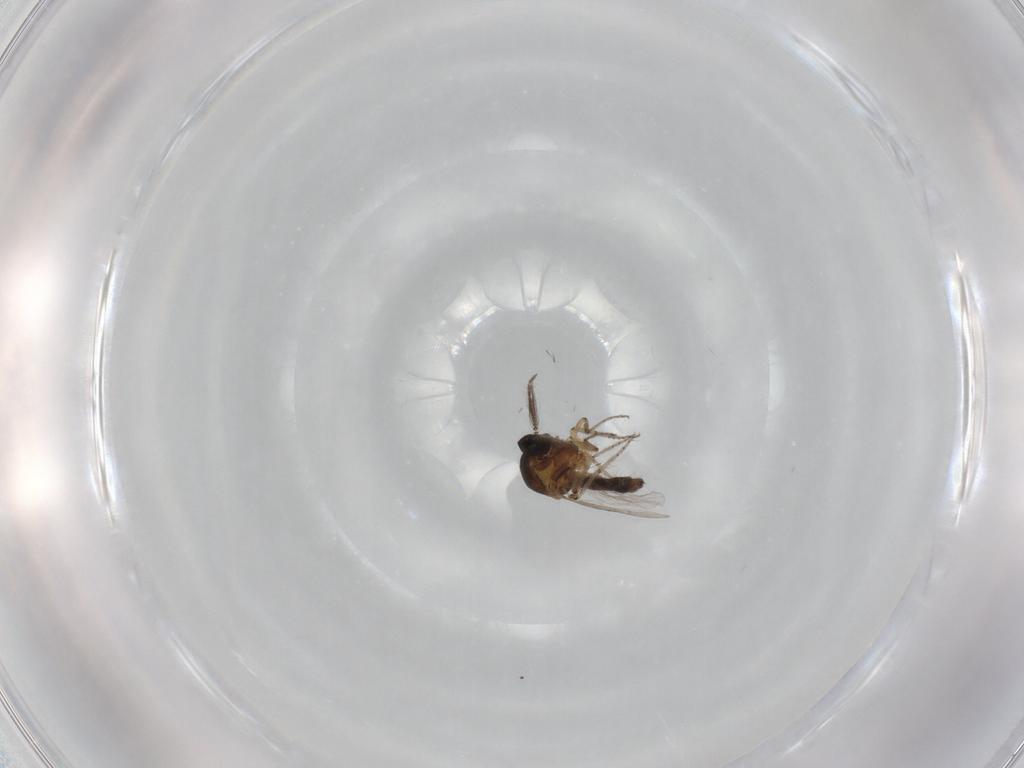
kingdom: Animalia
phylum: Arthropoda
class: Insecta
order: Diptera
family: Ceratopogonidae
